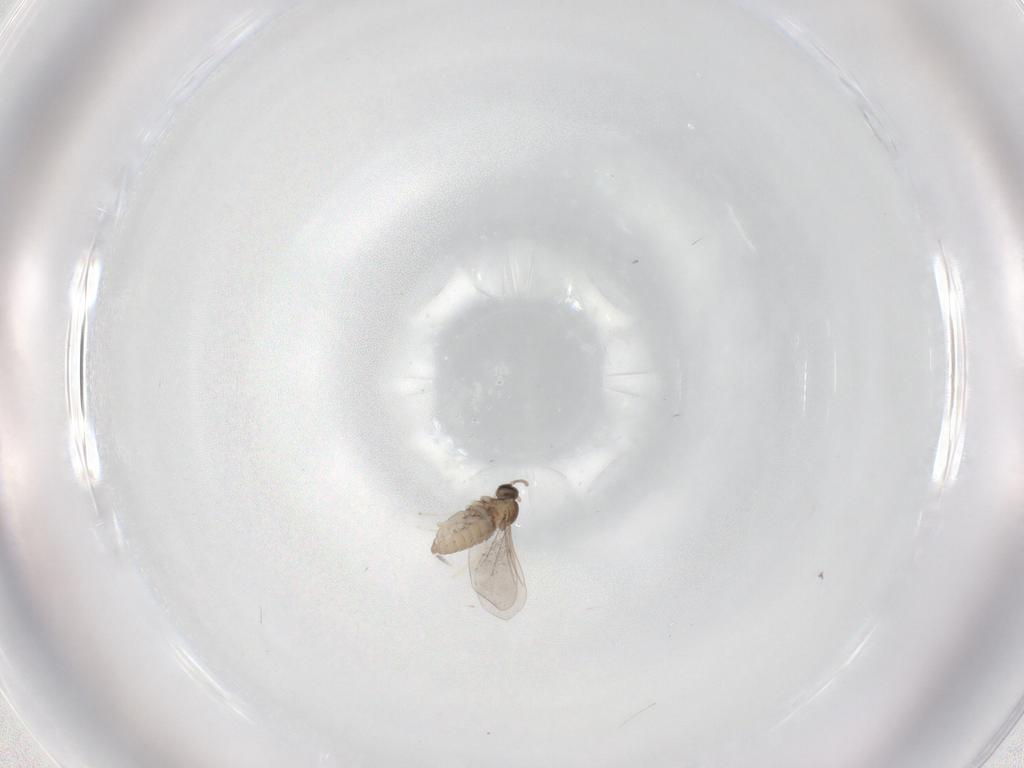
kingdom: Animalia
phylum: Arthropoda
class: Insecta
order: Diptera
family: Cecidomyiidae
